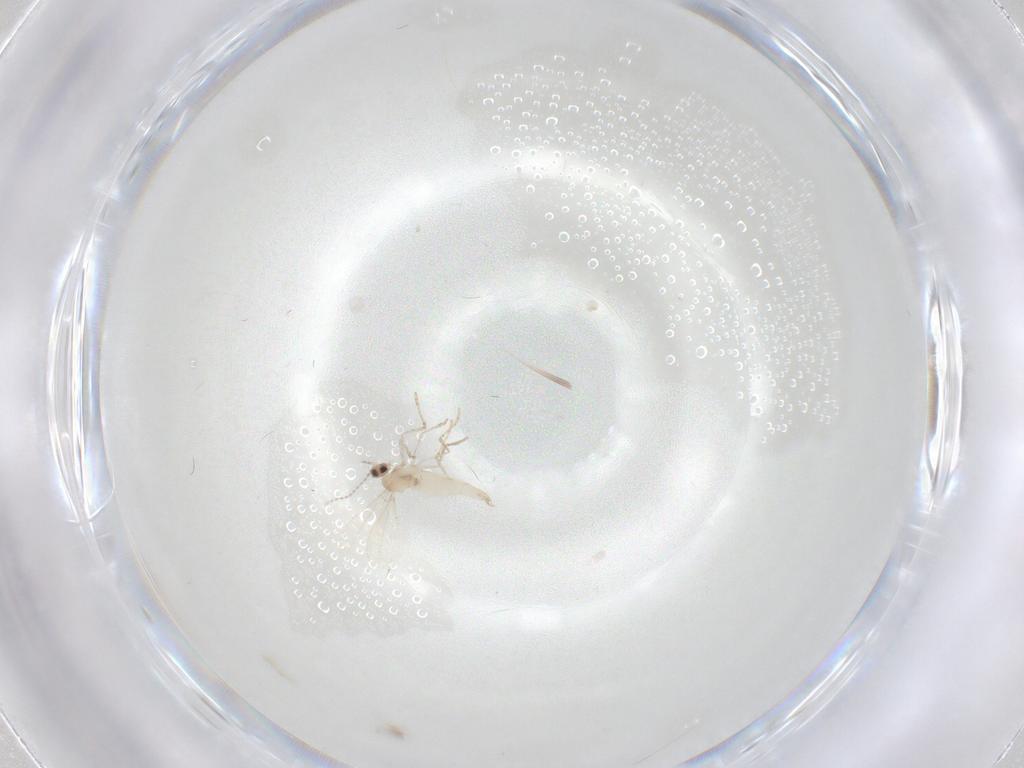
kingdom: Animalia
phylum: Arthropoda
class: Insecta
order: Diptera
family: Cecidomyiidae
